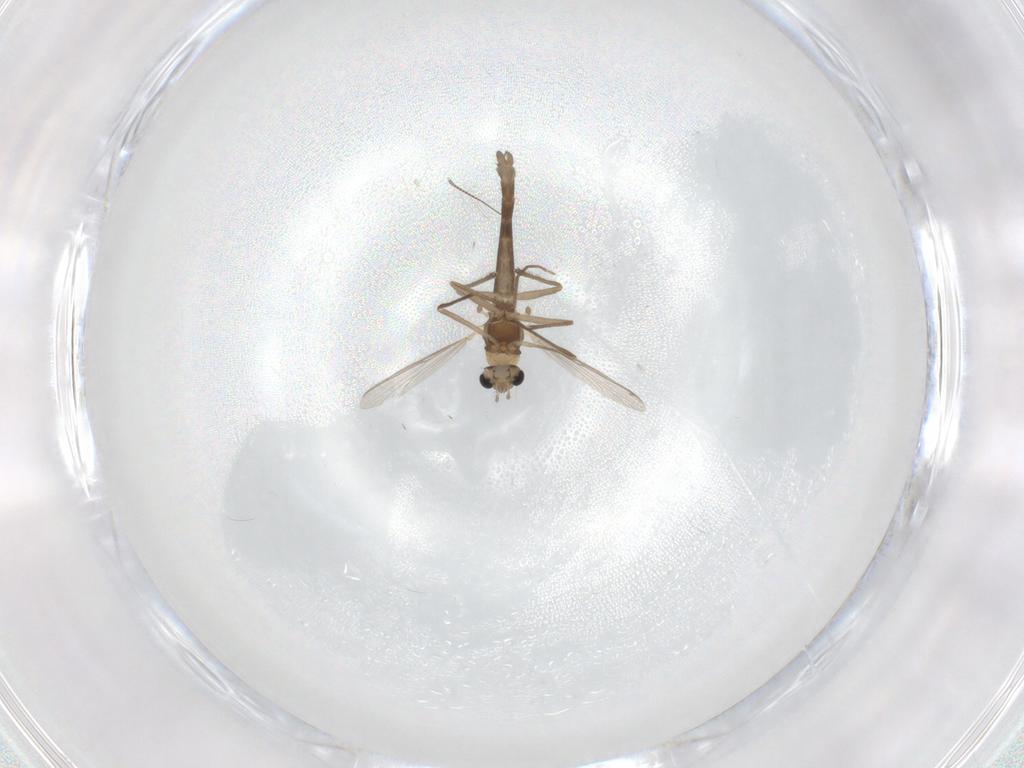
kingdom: Animalia
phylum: Arthropoda
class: Insecta
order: Diptera
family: Chironomidae
